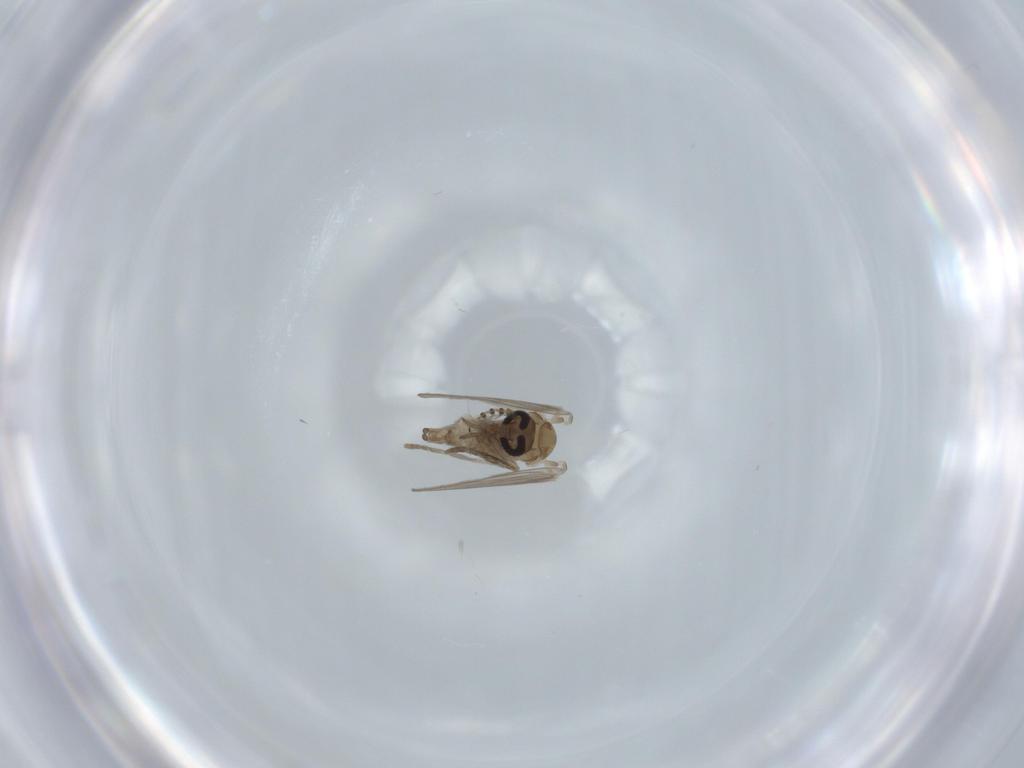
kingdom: Animalia
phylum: Arthropoda
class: Insecta
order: Diptera
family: Psychodidae
